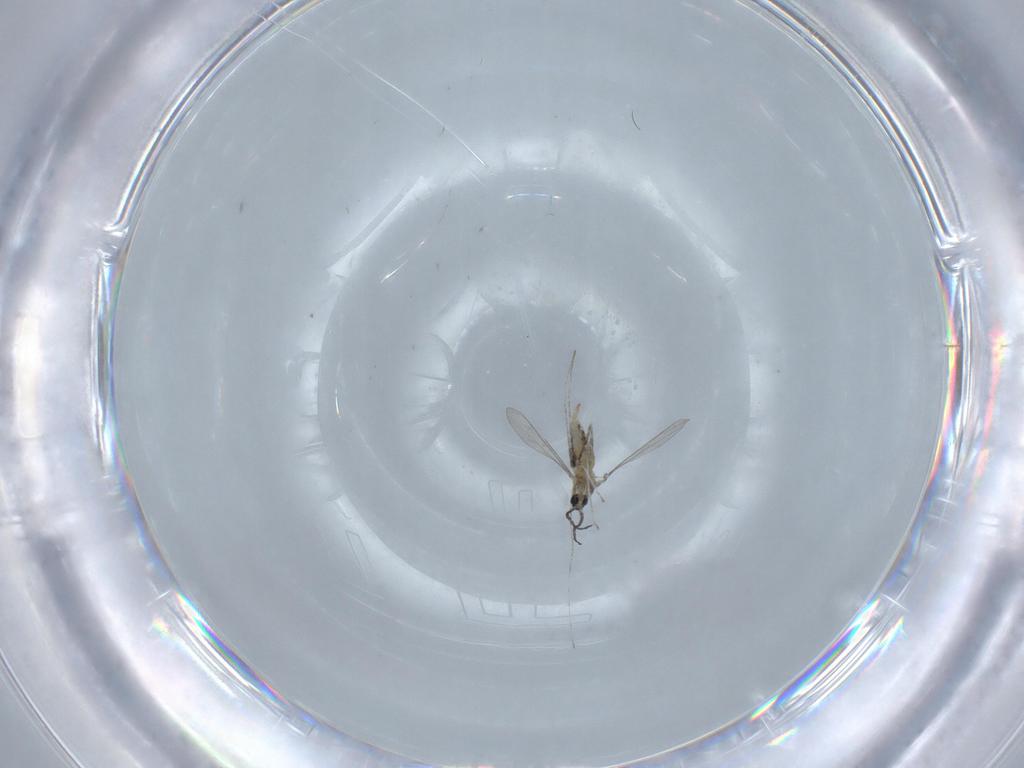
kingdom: Animalia
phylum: Arthropoda
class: Insecta
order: Diptera
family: Cecidomyiidae
